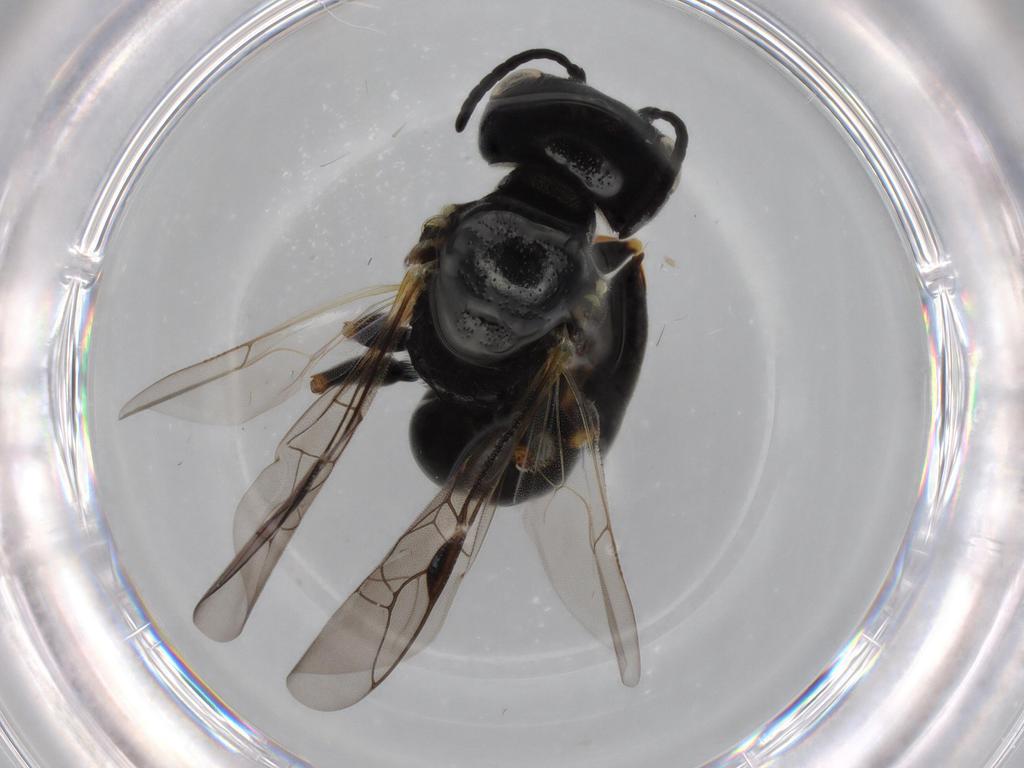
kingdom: Animalia
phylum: Arthropoda
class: Insecta
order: Hymenoptera
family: Figitidae
